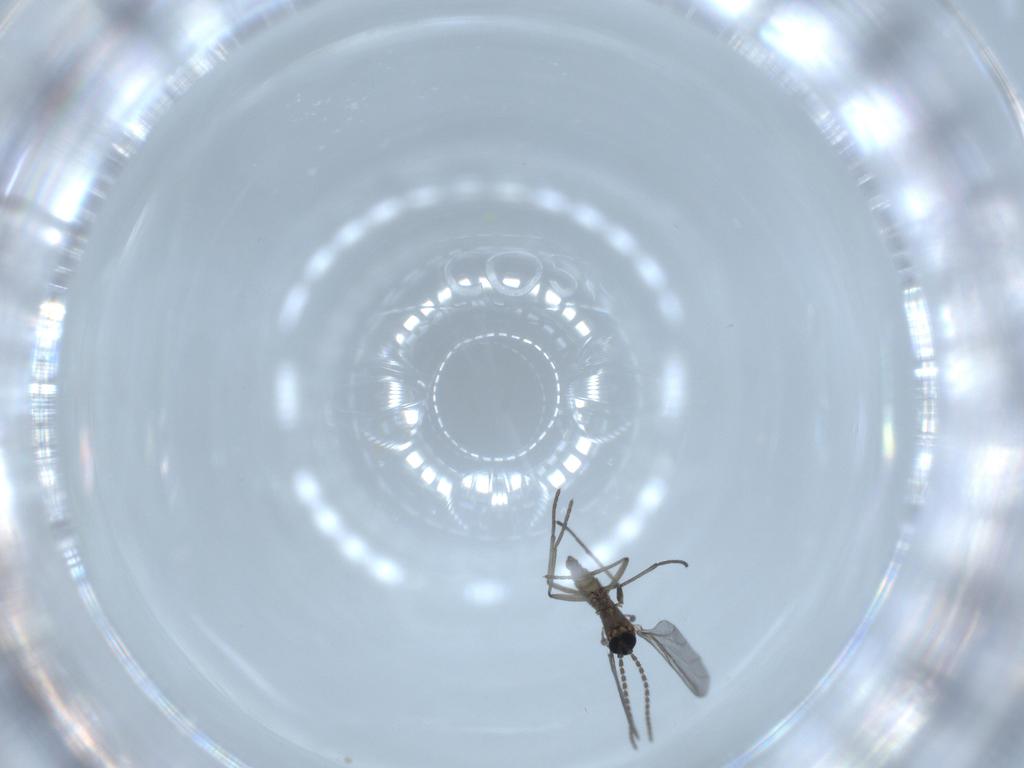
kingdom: Animalia
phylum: Arthropoda
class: Insecta
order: Diptera
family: Sciaridae
